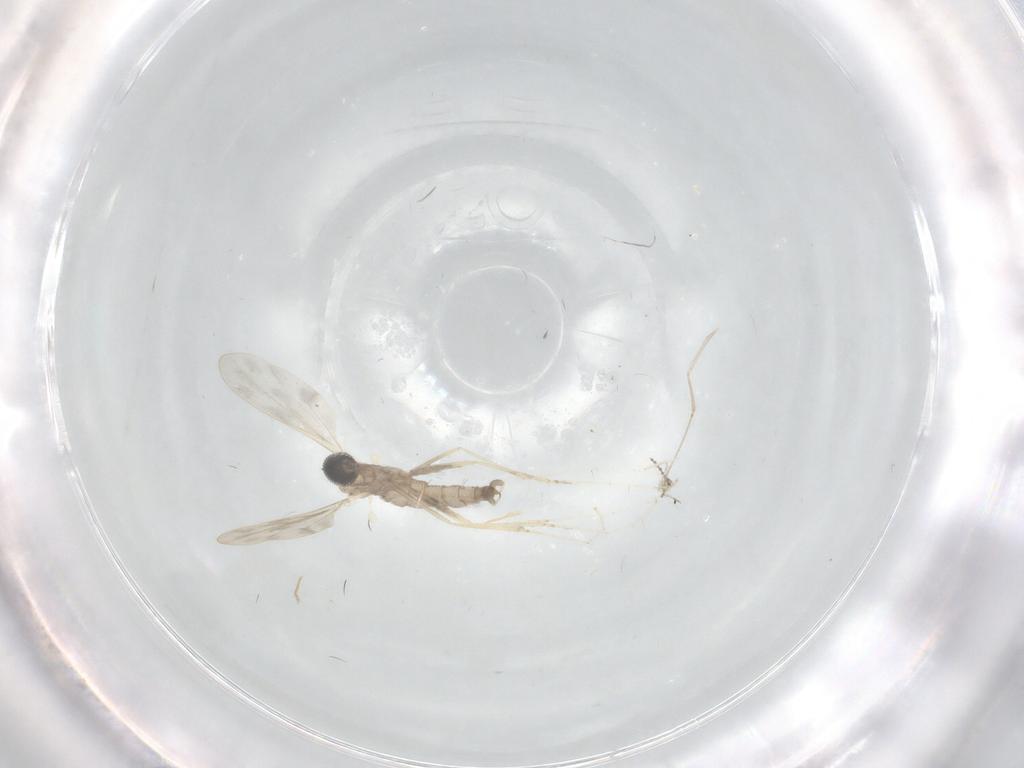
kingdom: Animalia
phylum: Arthropoda
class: Insecta
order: Diptera
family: Chironomidae
